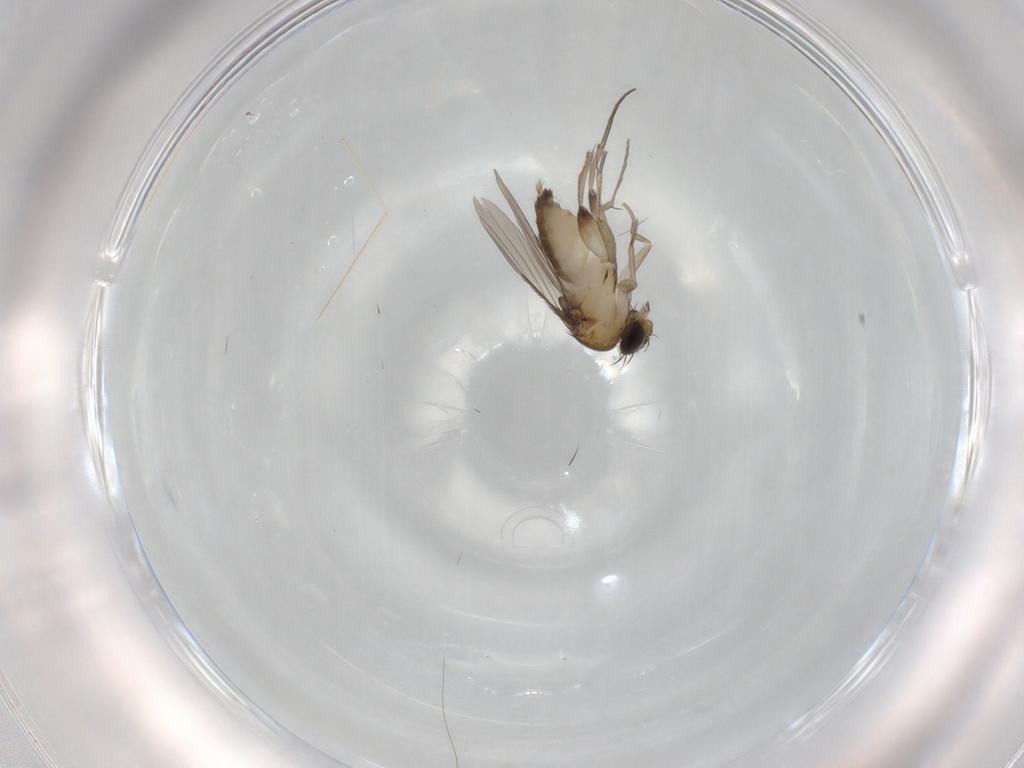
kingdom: Animalia
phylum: Arthropoda
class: Insecta
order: Diptera
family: Phoridae
